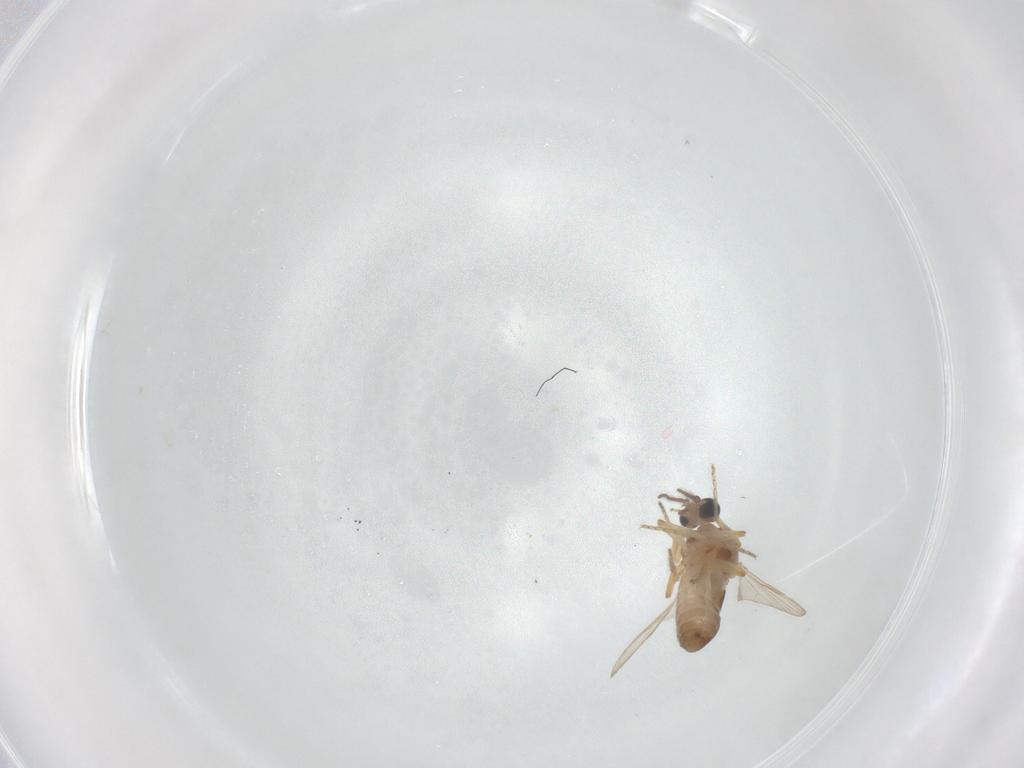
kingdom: Animalia
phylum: Arthropoda
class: Insecta
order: Diptera
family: Ceratopogonidae
